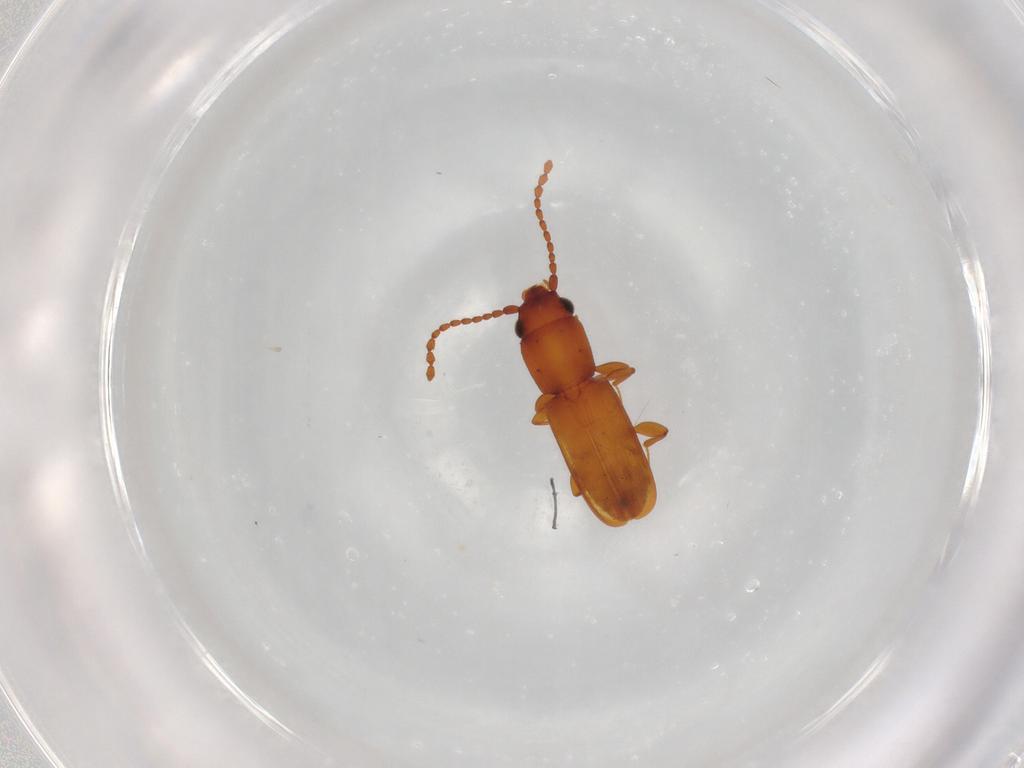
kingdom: Animalia
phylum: Arthropoda
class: Insecta
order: Coleoptera
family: Laemophloeidae
